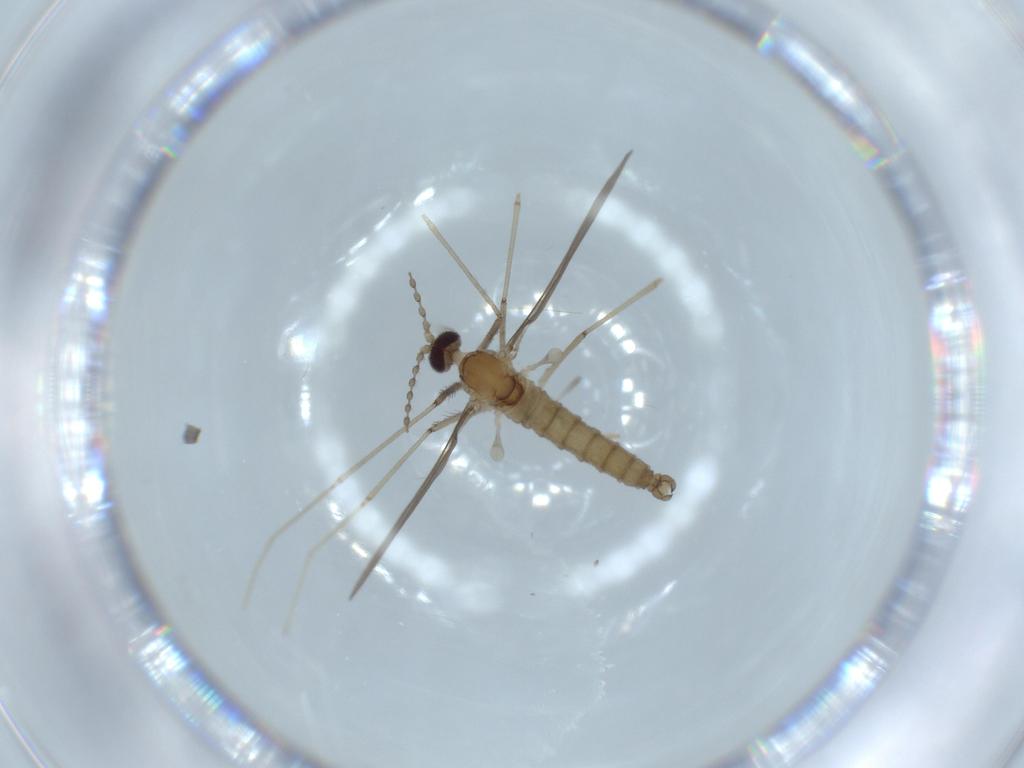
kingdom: Animalia
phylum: Arthropoda
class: Insecta
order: Diptera
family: Cecidomyiidae
